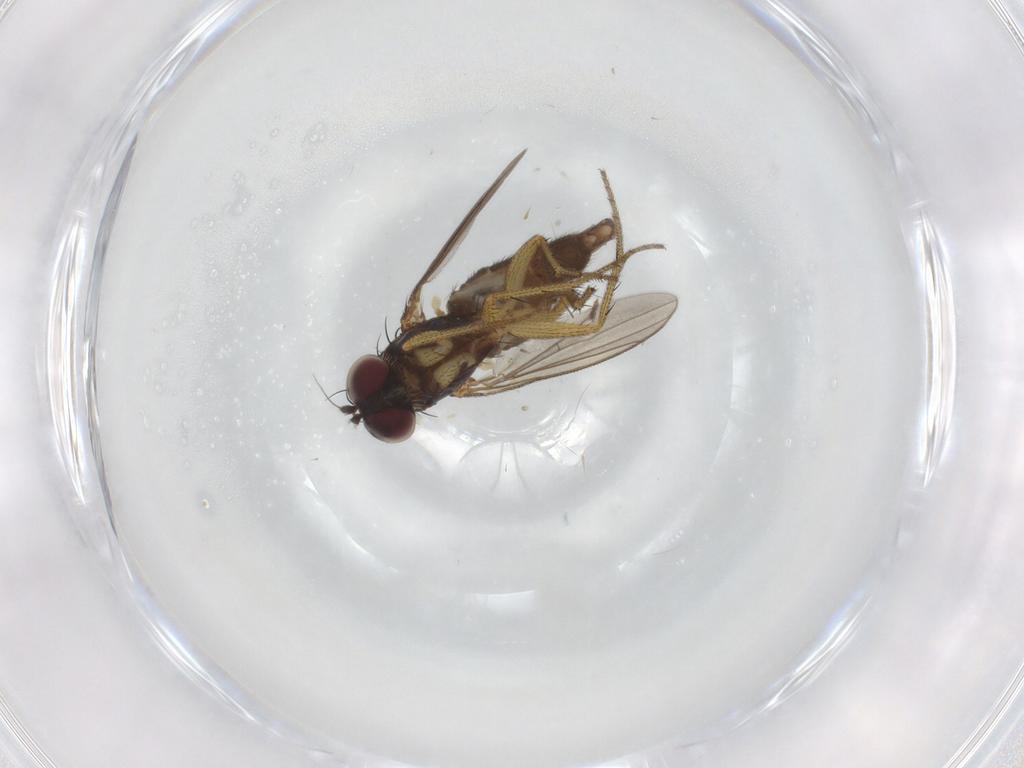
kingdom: Animalia
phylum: Arthropoda
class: Insecta
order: Diptera
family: Dolichopodidae
